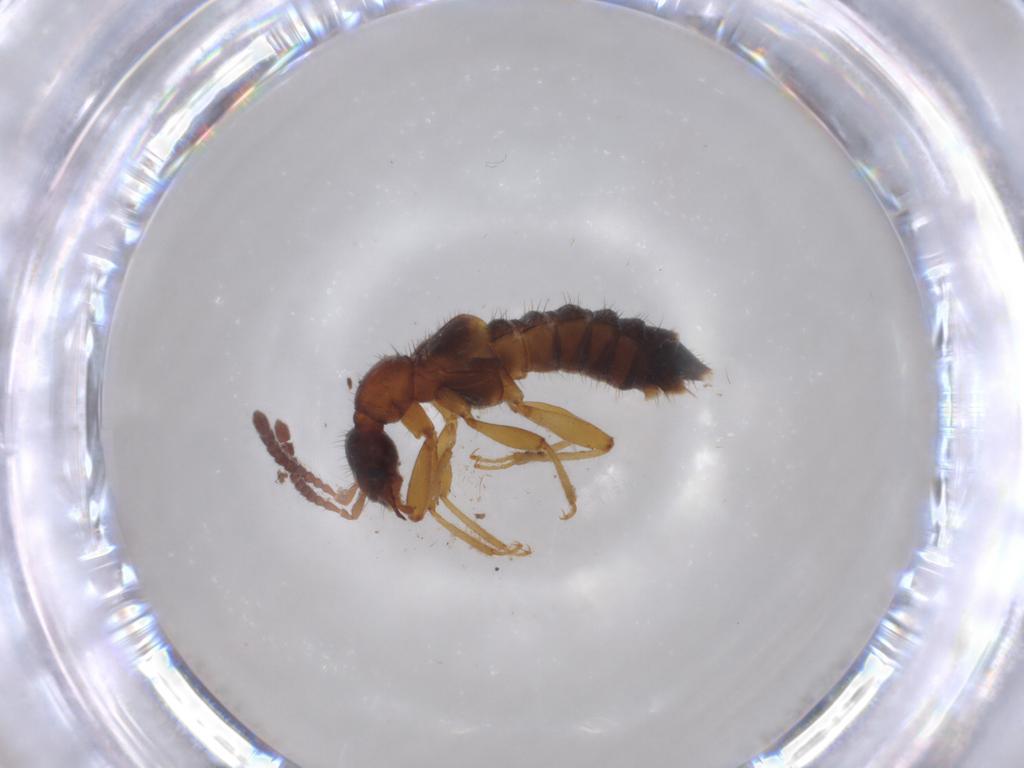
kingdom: Animalia
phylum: Arthropoda
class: Insecta
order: Coleoptera
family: Staphylinidae
